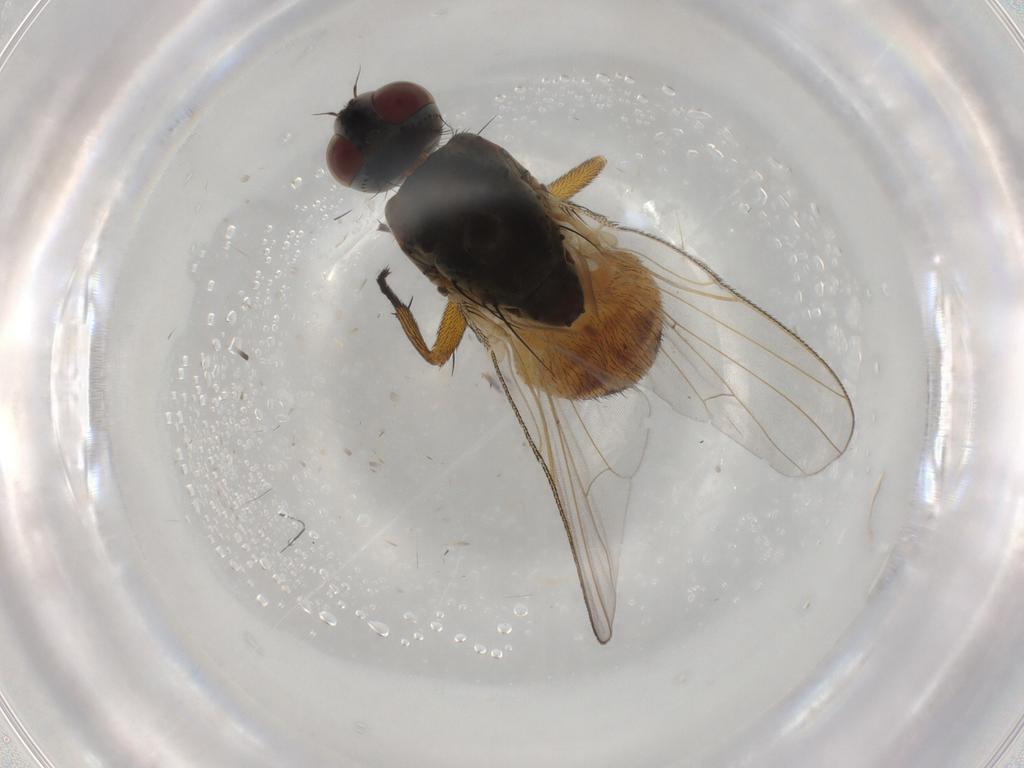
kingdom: Animalia
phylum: Arthropoda
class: Insecta
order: Diptera
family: Muscidae
